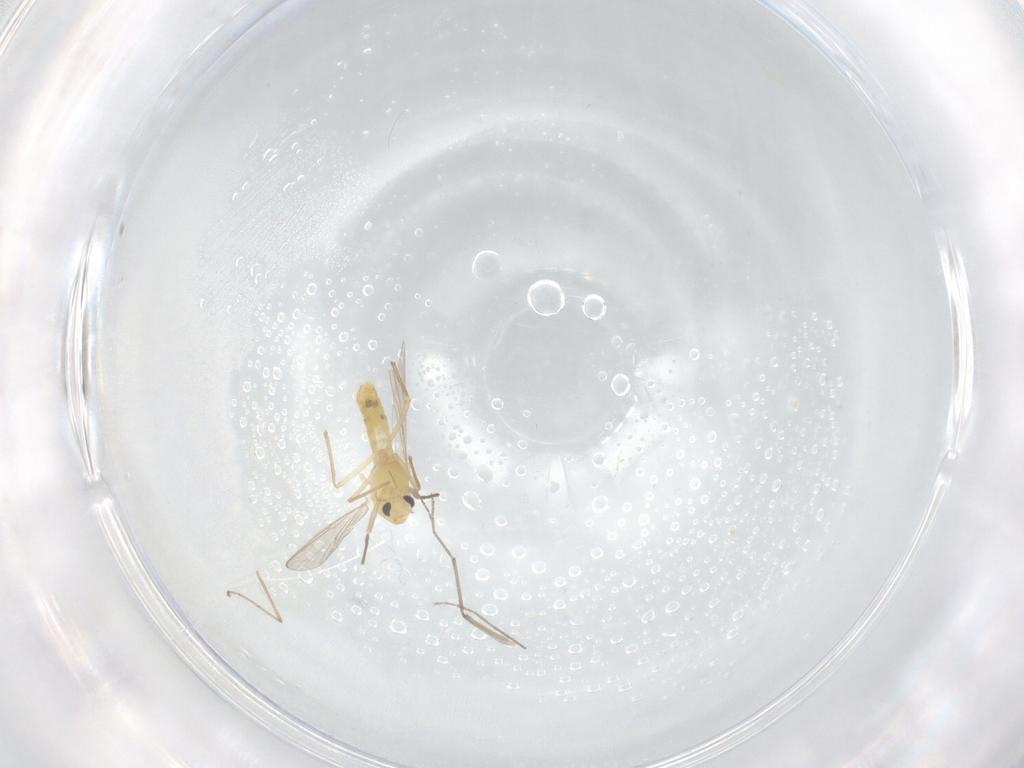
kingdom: Animalia
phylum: Arthropoda
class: Insecta
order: Diptera
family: Chironomidae
